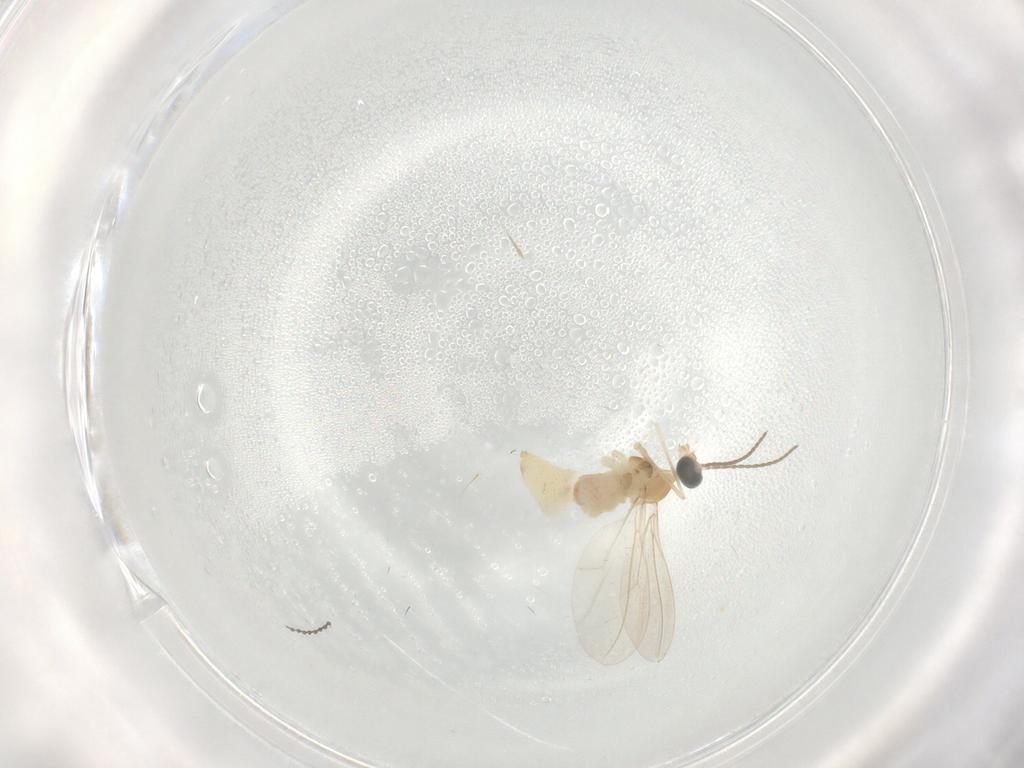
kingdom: Animalia
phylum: Arthropoda
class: Insecta
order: Diptera
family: Cecidomyiidae
